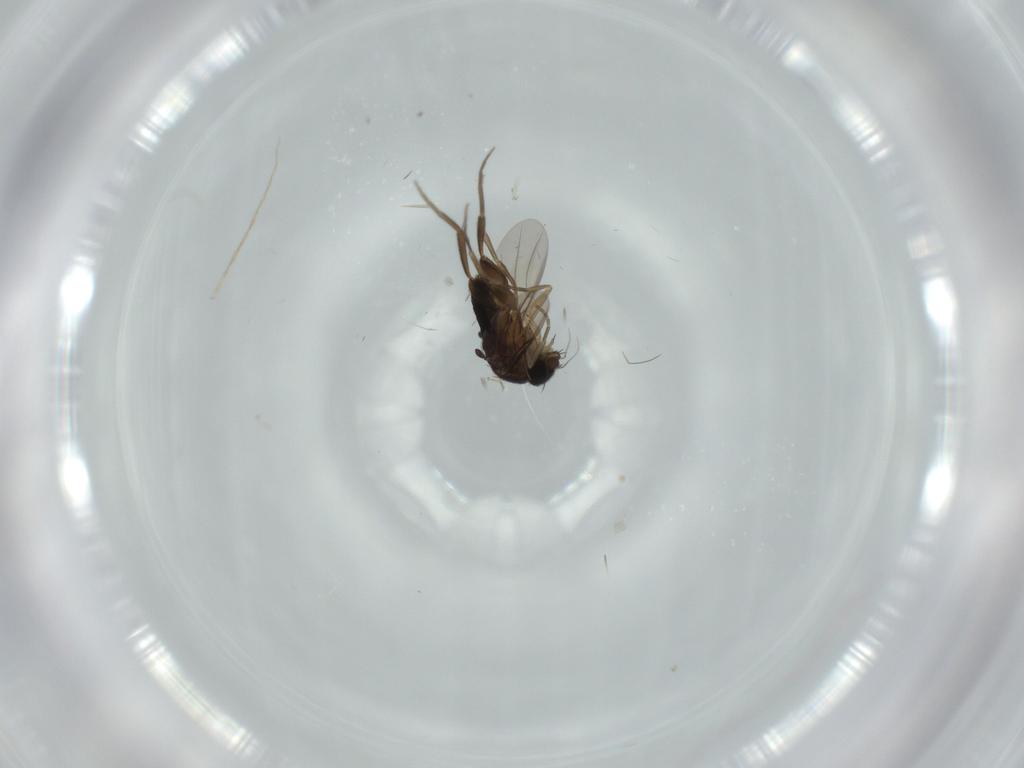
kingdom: Animalia
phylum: Arthropoda
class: Insecta
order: Diptera
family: Phoridae
